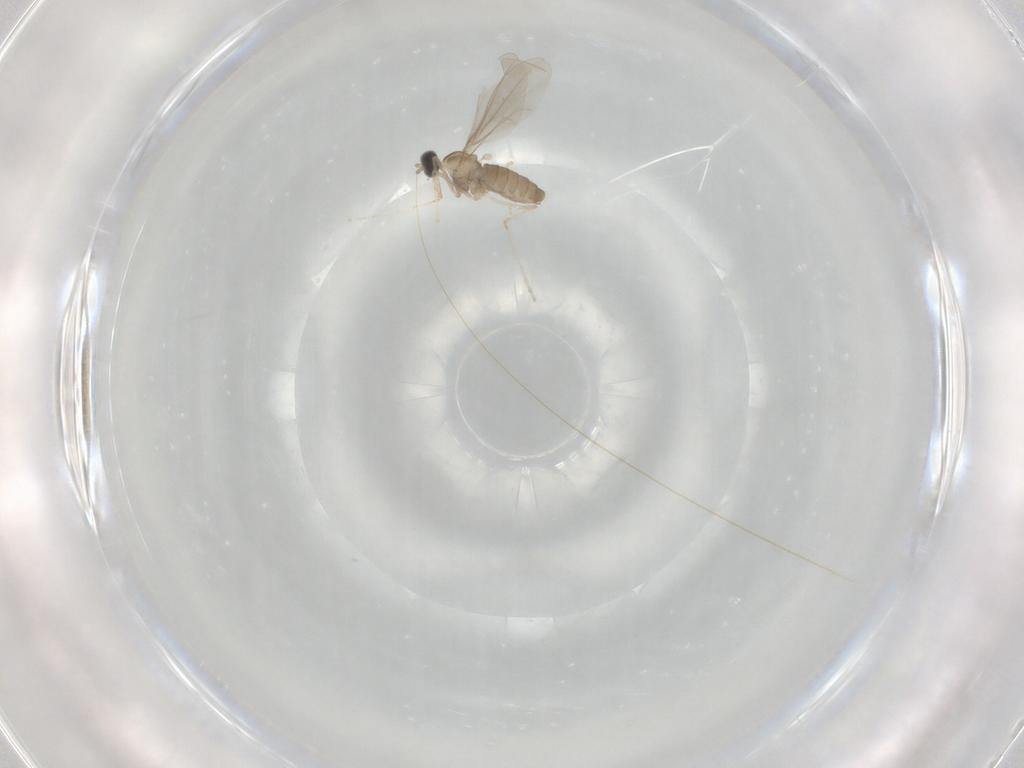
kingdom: Animalia
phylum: Arthropoda
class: Insecta
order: Diptera
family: Cecidomyiidae
